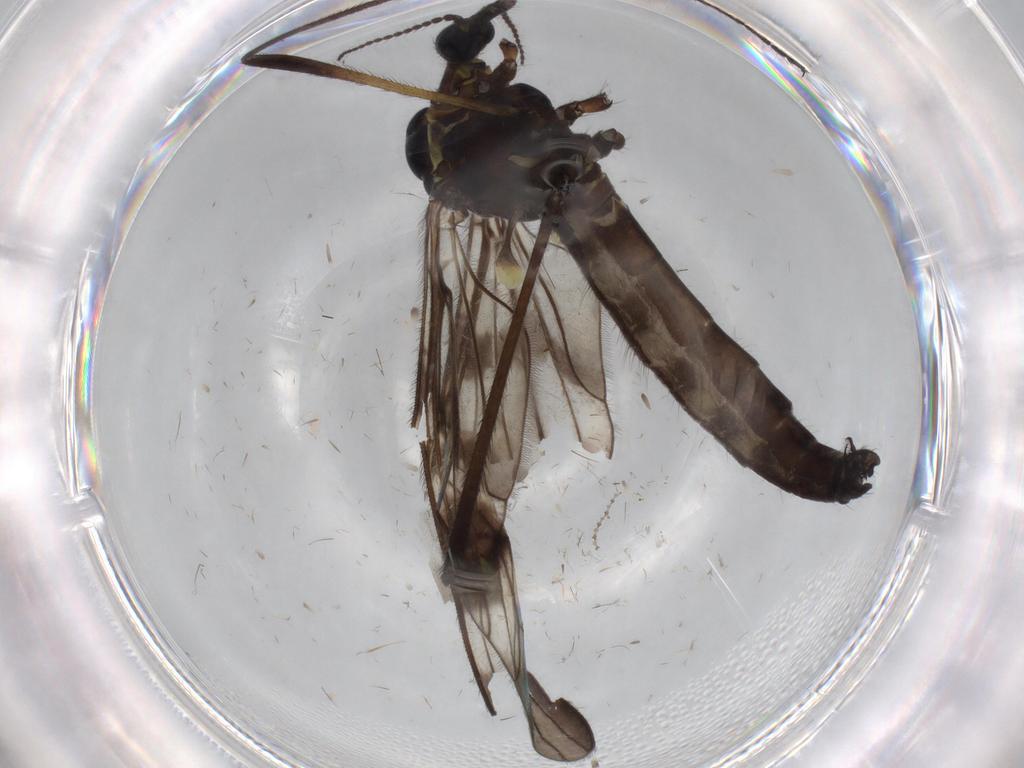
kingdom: Animalia
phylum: Arthropoda
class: Insecta
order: Diptera
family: Limoniidae
